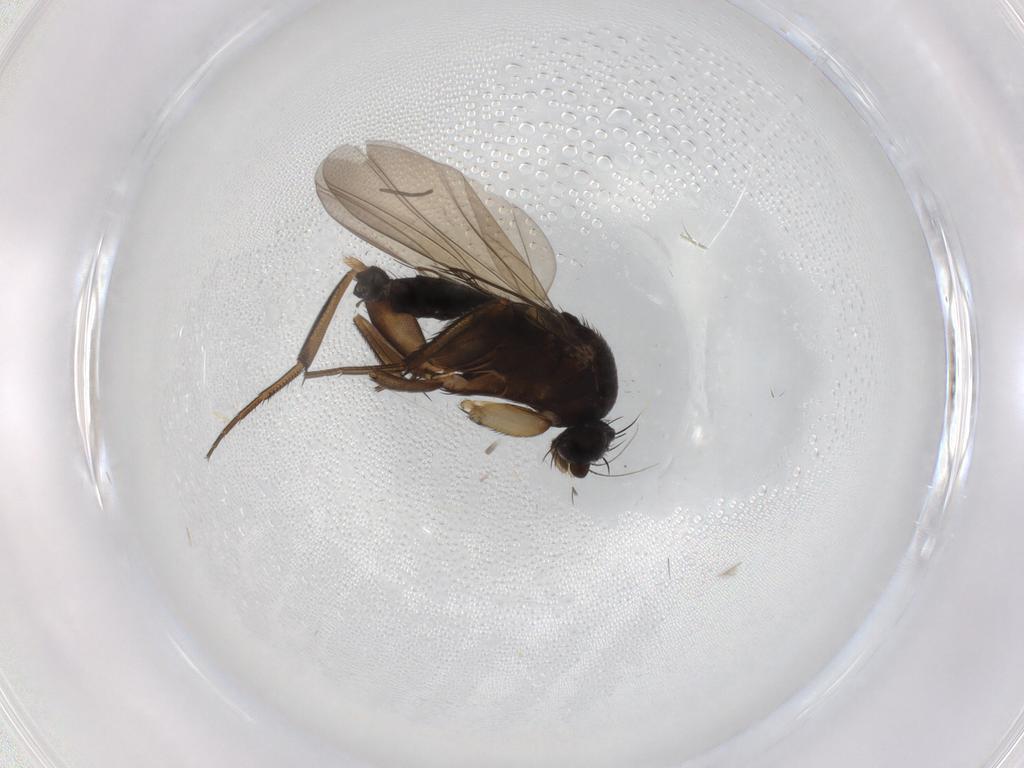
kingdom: Animalia
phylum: Arthropoda
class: Insecta
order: Diptera
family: Phoridae
